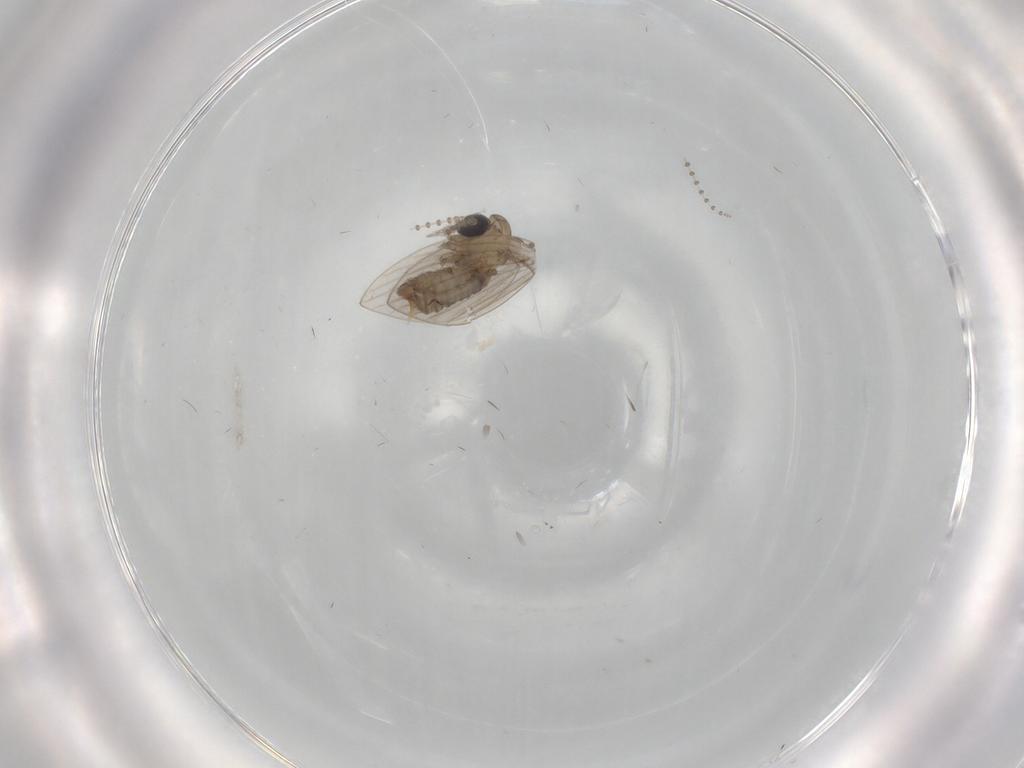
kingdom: Animalia
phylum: Arthropoda
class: Insecta
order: Diptera
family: Psychodidae
